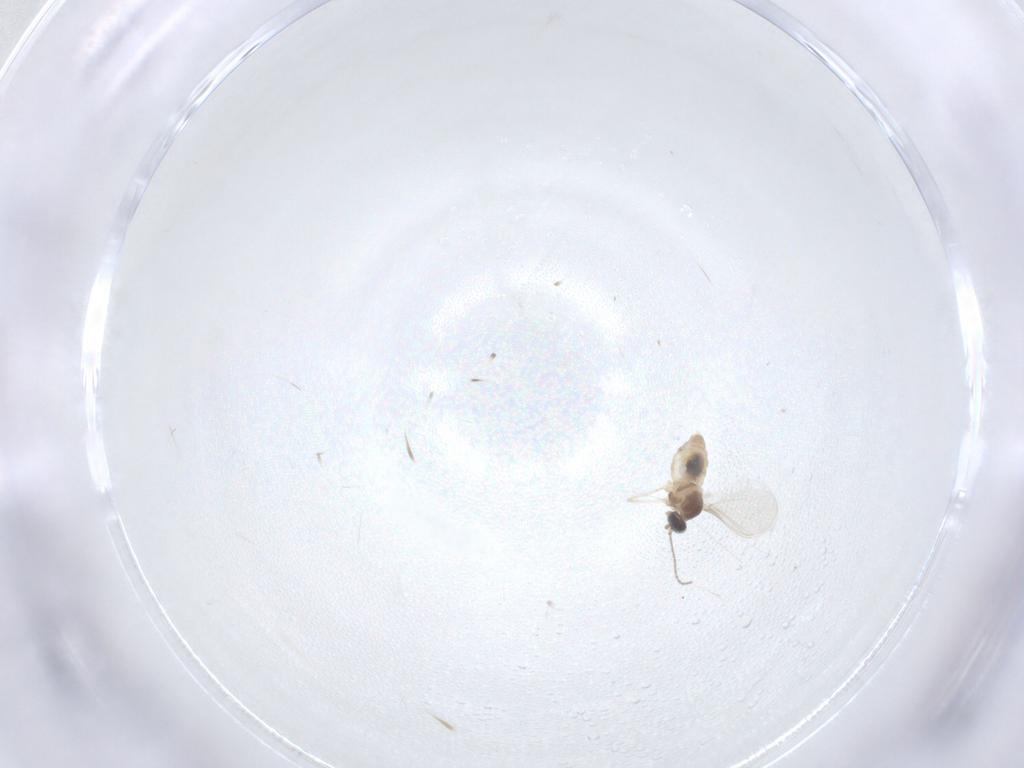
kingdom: Animalia
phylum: Arthropoda
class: Insecta
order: Diptera
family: Cecidomyiidae
